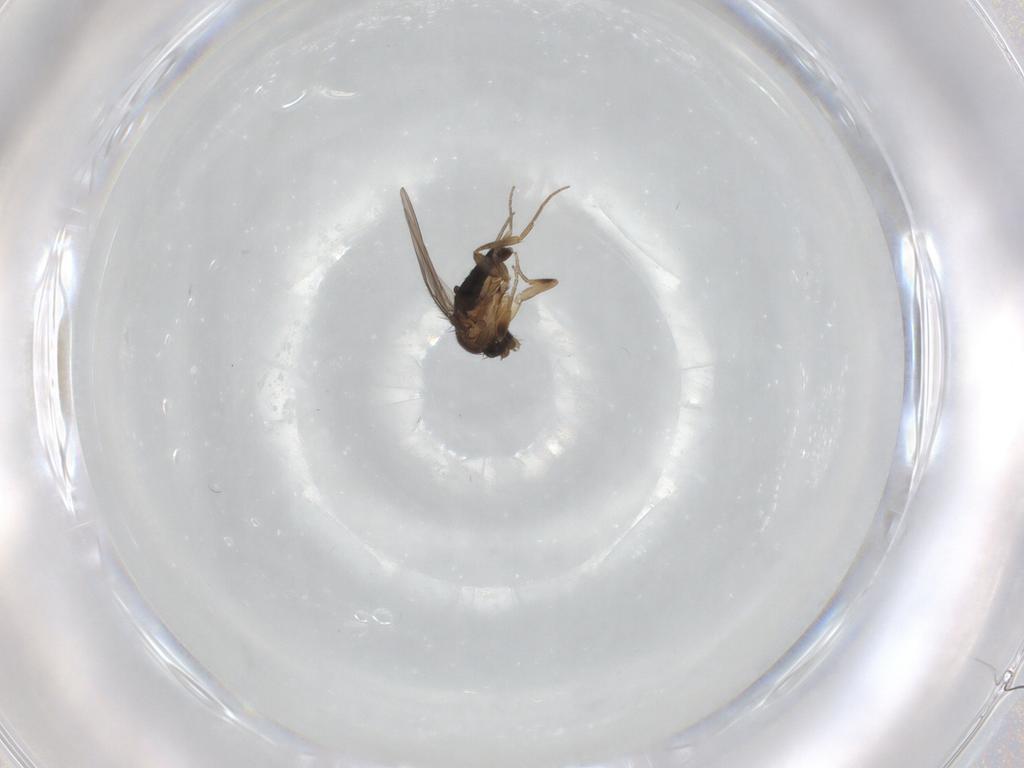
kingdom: Animalia
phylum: Arthropoda
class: Insecta
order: Diptera
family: Phoridae
